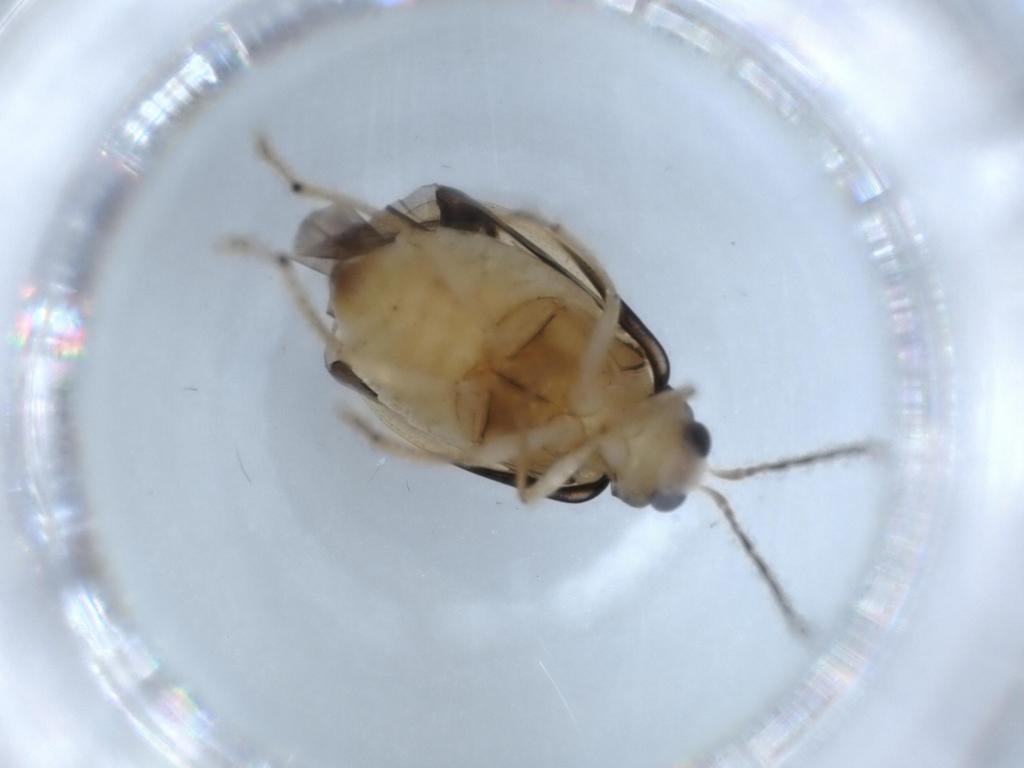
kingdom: Animalia
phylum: Arthropoda
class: Insecta
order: Coleoptera
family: Chrysomelidae
